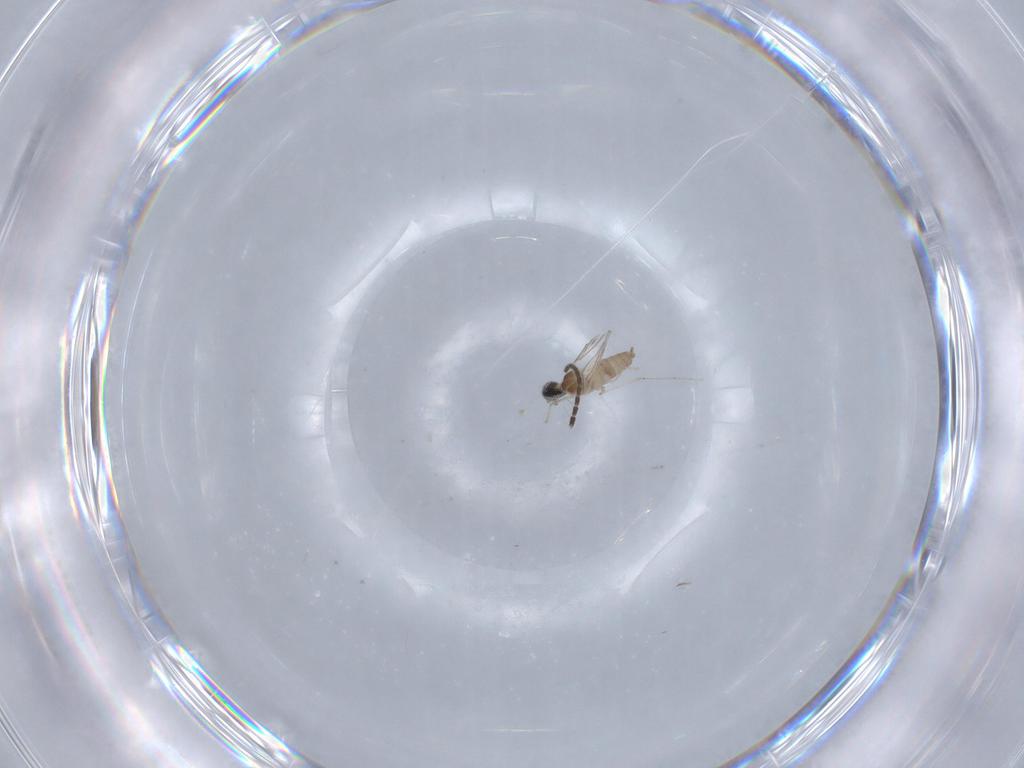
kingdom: Animalia
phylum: Arthropoda
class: Insecta
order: Diptera
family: Cecidomyiidae
